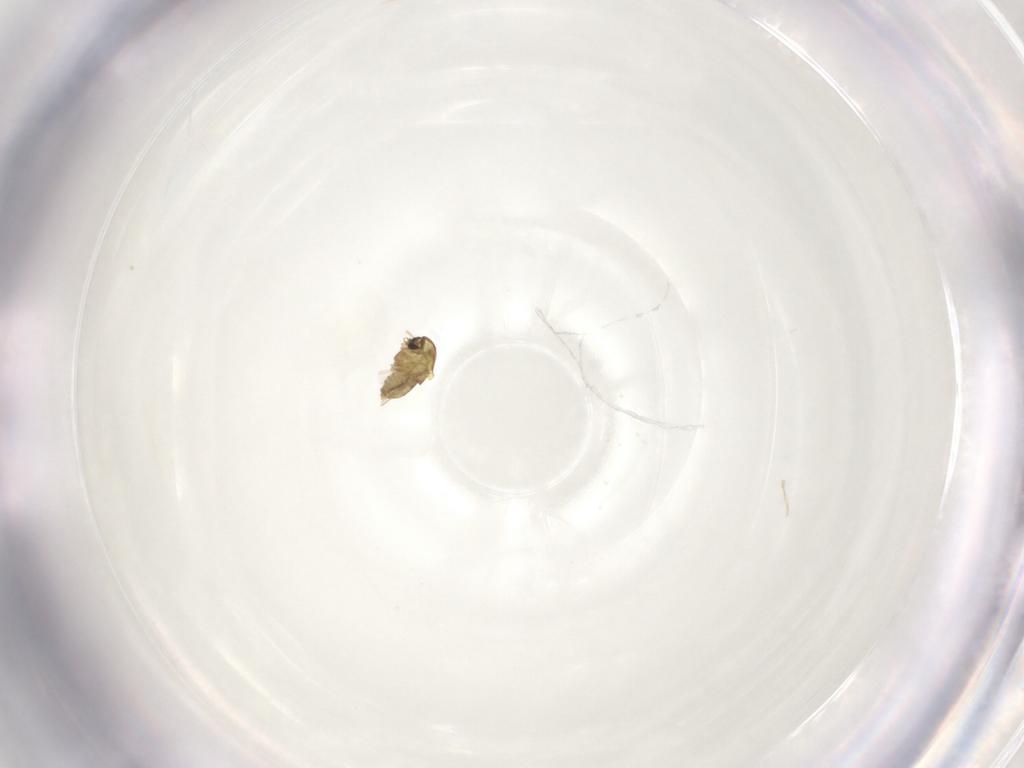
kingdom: Animalia
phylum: Arthropoda
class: Insecta
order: Diptera
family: Chironomidae
